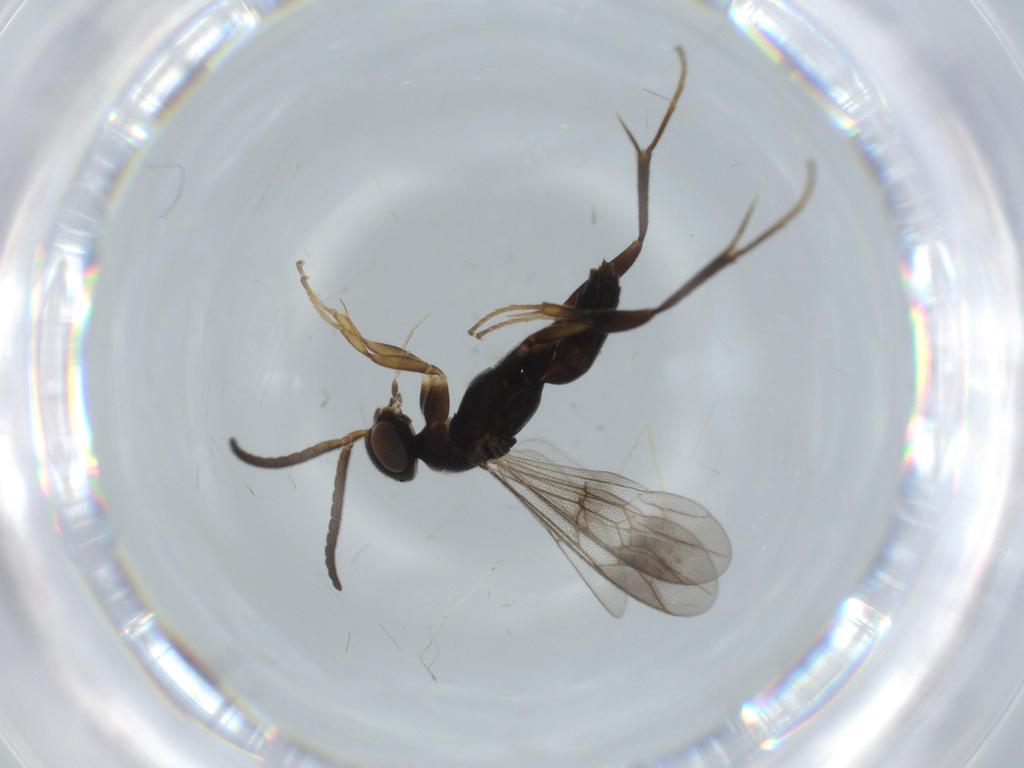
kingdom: Animalia
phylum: Arthropoda
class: Insecta
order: Hymenoptera
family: Pompilidae
